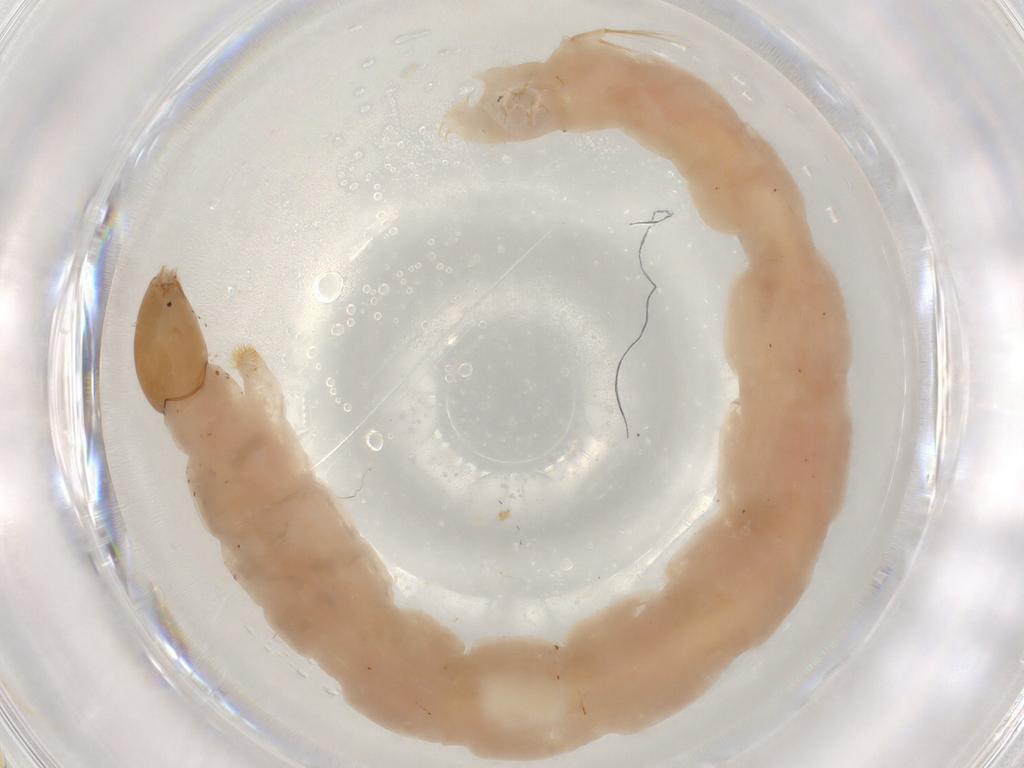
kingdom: Animalia
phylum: Arthropoda
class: Insecta
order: Diptera
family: Chironomidae
